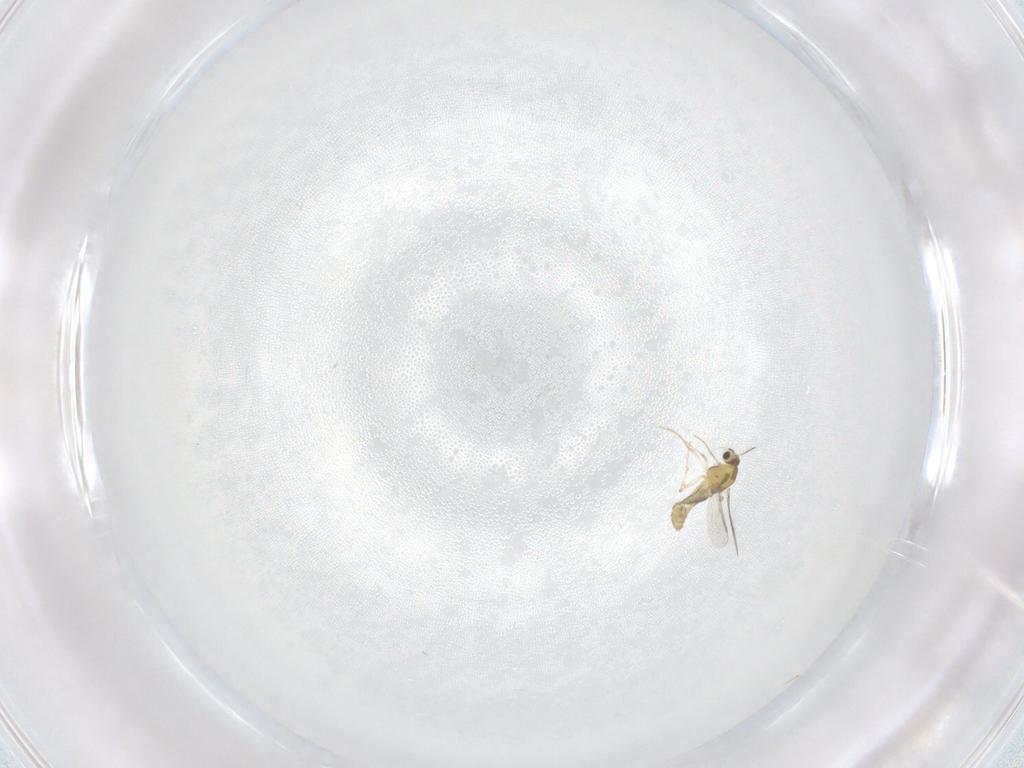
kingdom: Animalia
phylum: Arthropoda
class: Insecta
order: Diptera
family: Chironomidae
